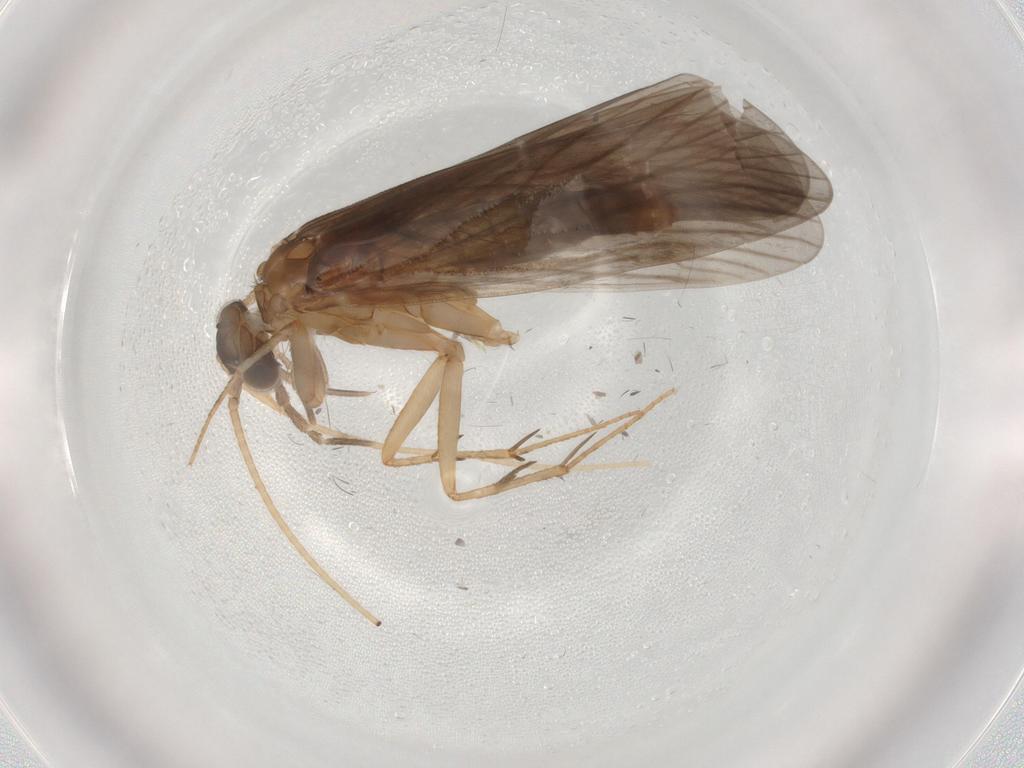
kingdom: Animalia
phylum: Arthropoda
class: Insecta
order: Trichoptera
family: Philopotamidae
